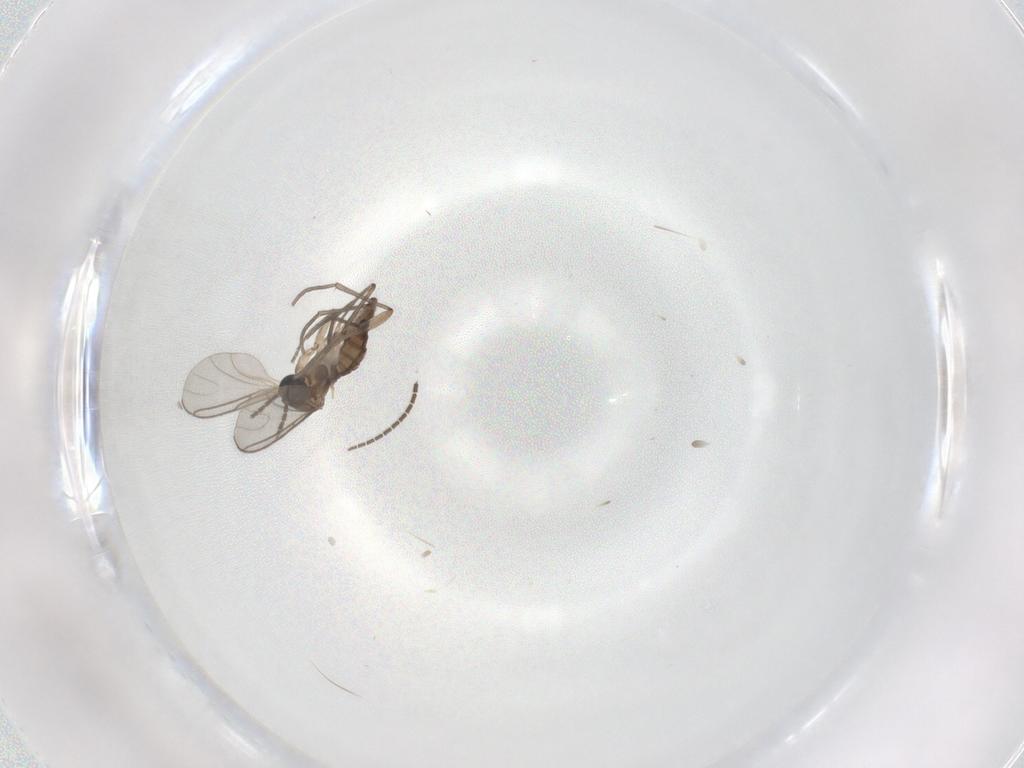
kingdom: Animalia
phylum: Arthropoda
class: Insecta
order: Diptera
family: Sciaridae
